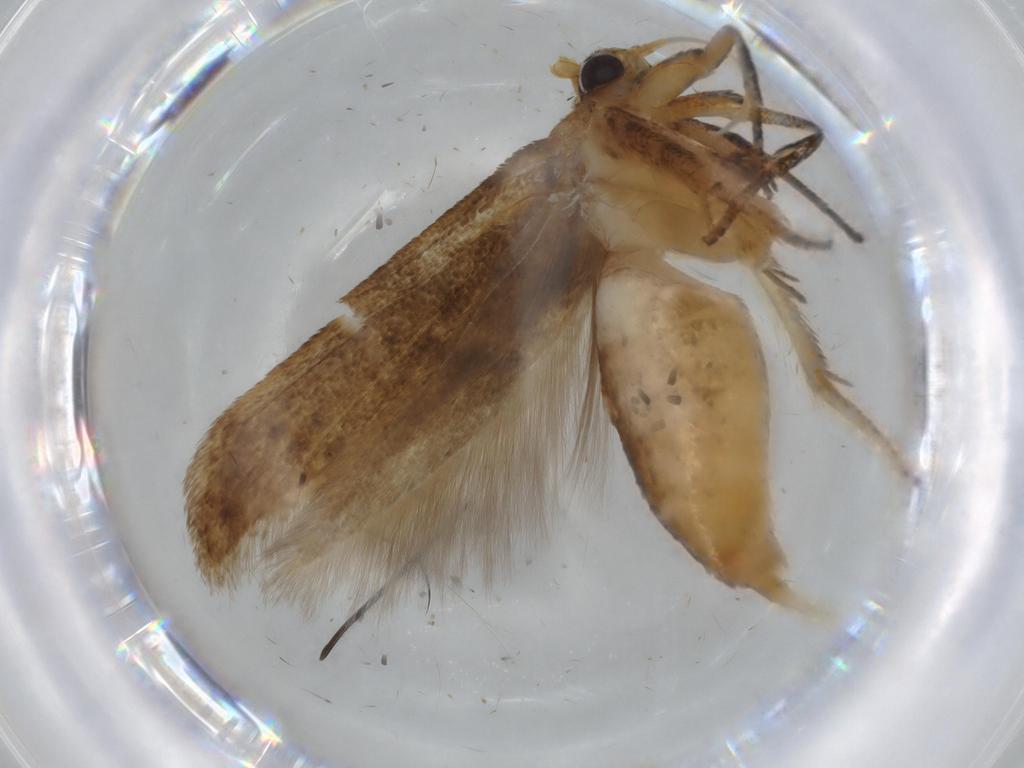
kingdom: Animalia
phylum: Arthropoda
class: Insecta
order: Lepidoptera
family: Blastobasidae
